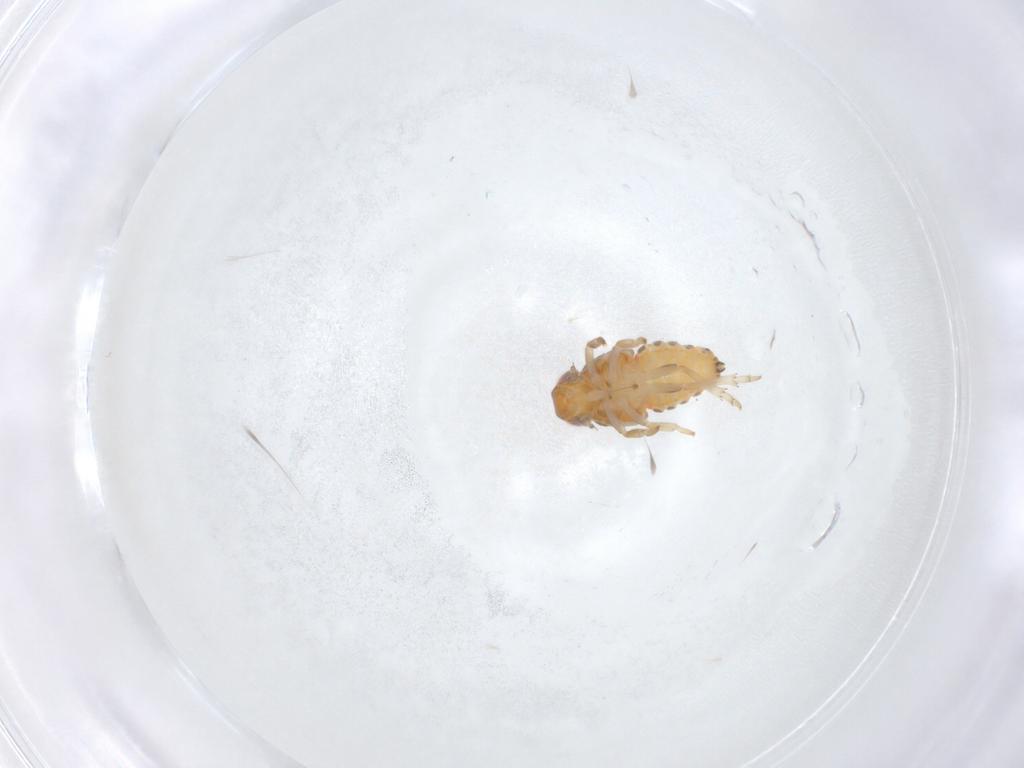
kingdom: Animalia
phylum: Arthropoda
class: Insecta
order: Hemiptera
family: Issidae
